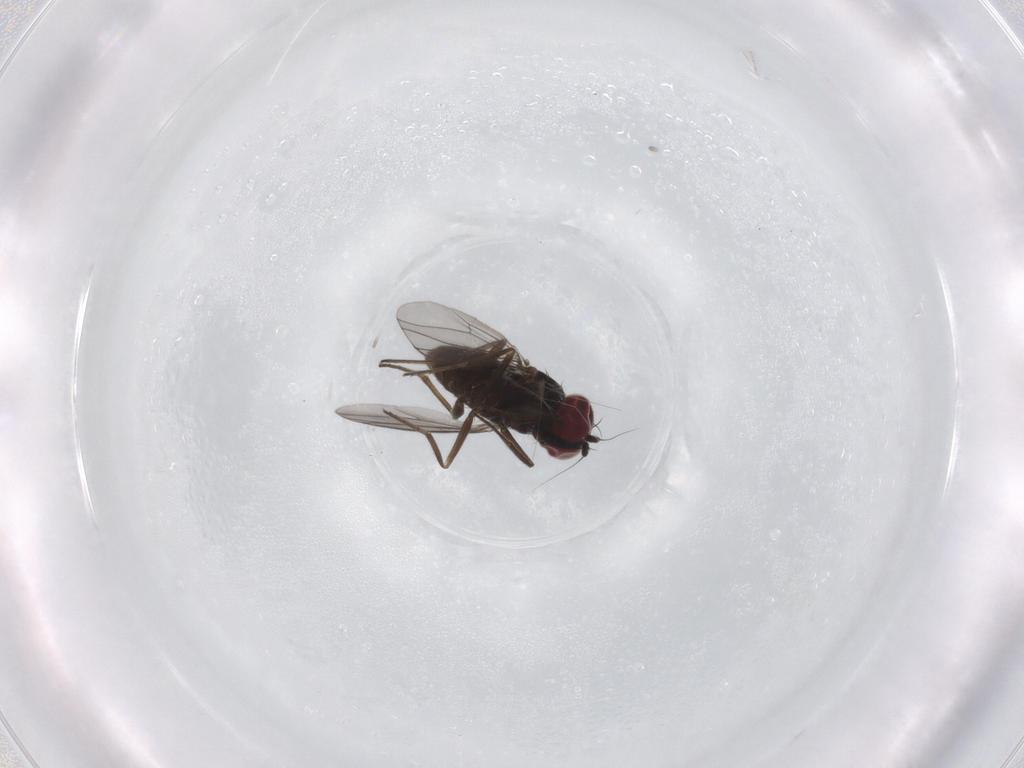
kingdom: Animalia
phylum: Arthropoda
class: Insecta
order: Diptera
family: Dolichopodidae
